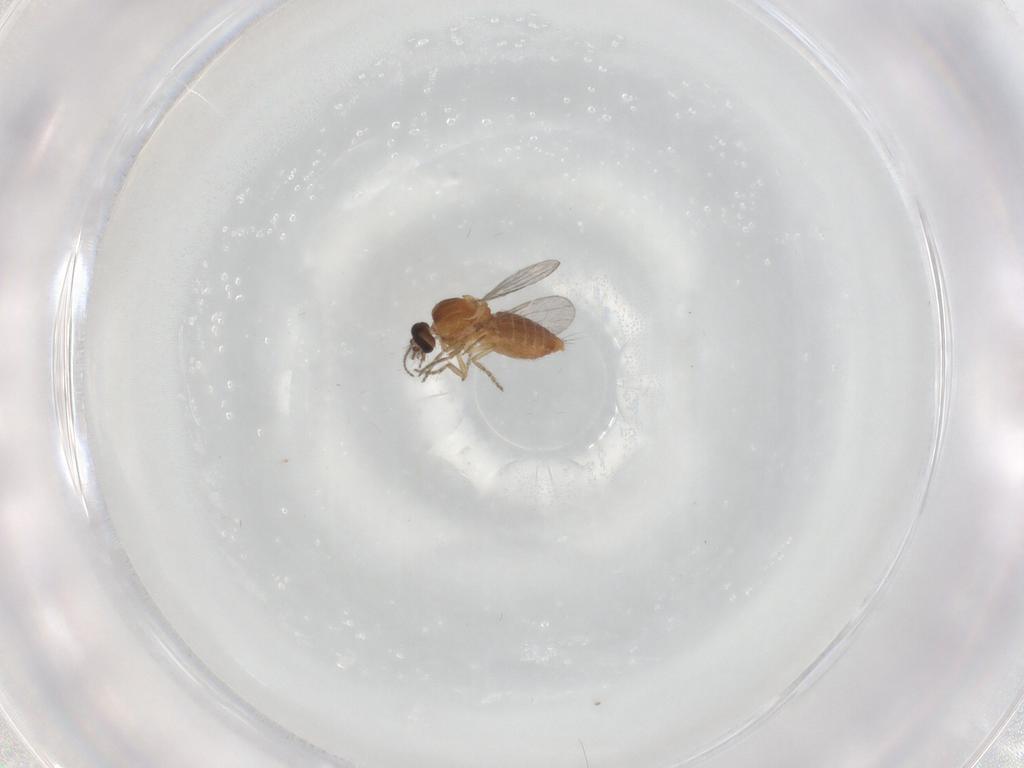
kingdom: Animalia
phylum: Arthropoda
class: Insecta
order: Diptera
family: Ceratopogonidae
